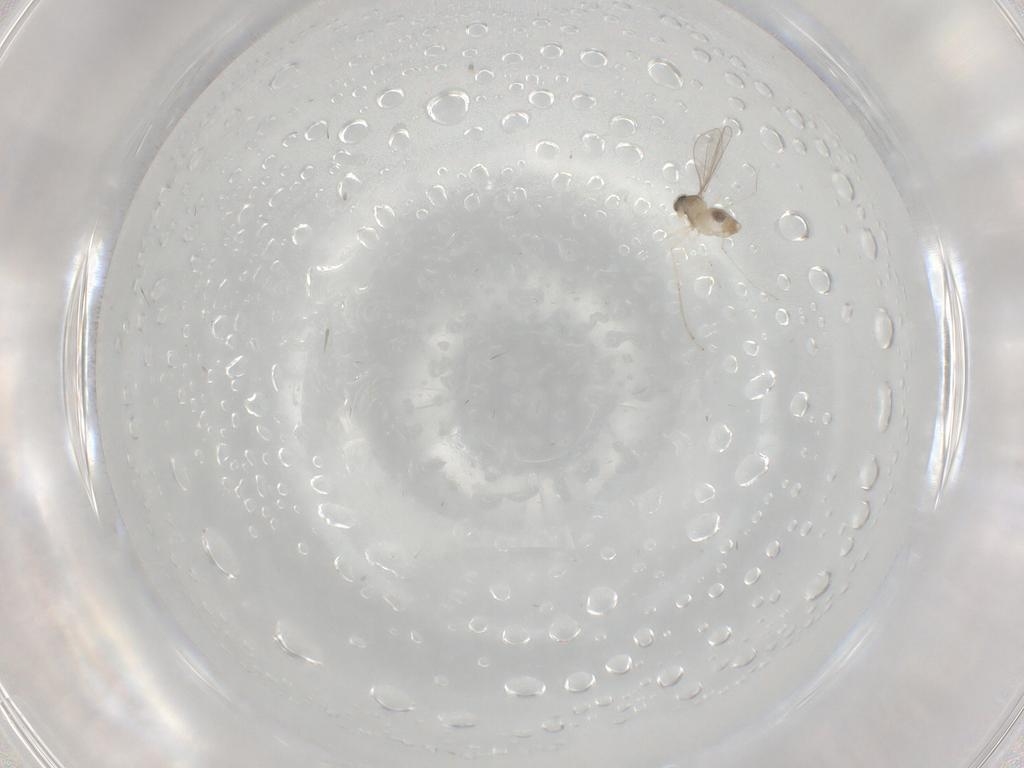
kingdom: Animalia
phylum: Arthropoda
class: Insecta
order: Diptera
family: Cecidomyiidae
